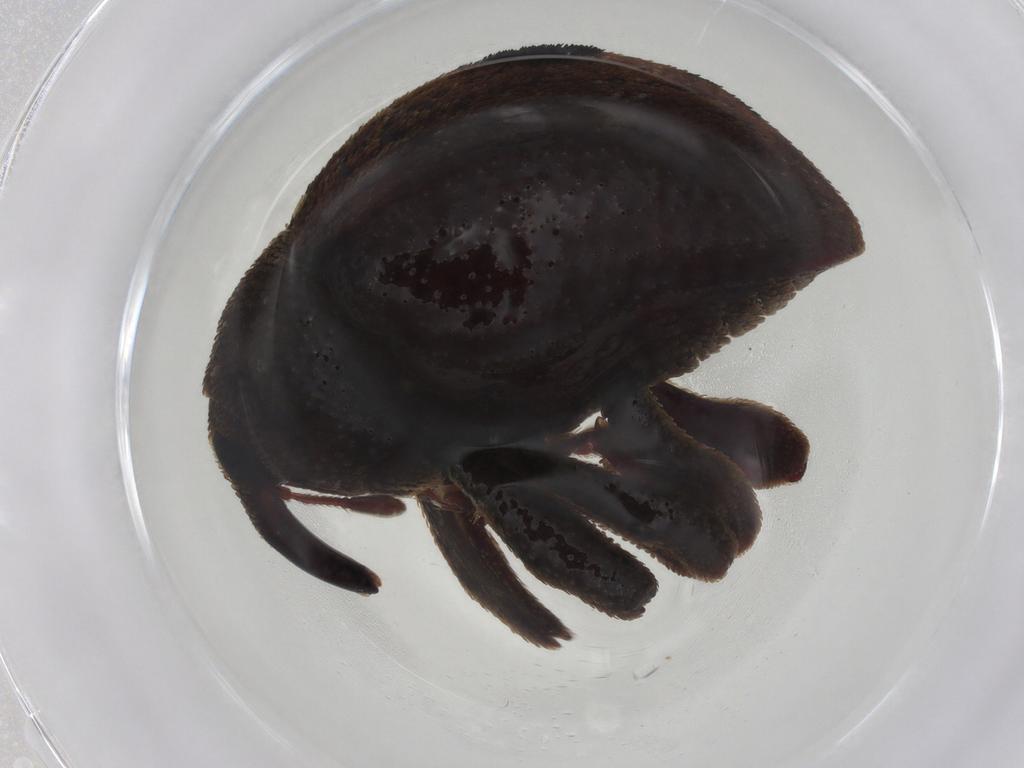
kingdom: Animalia
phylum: Arthropoda
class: Insecta
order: Coleoptera
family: Curculionidae
